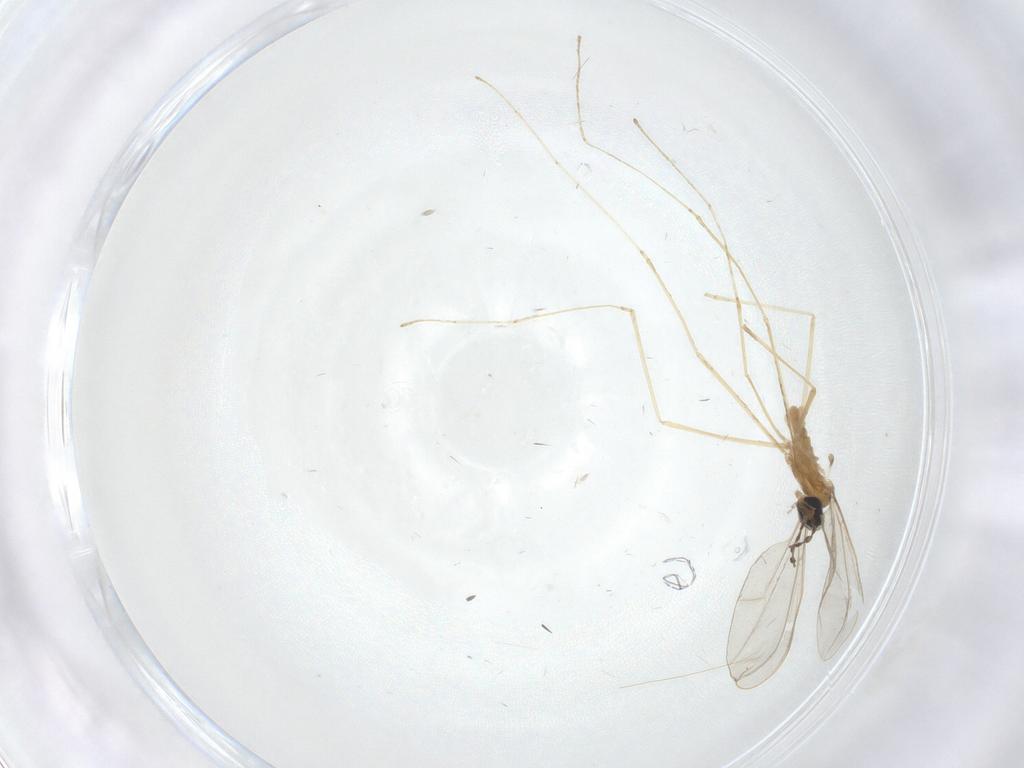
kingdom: Animalia
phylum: Arthropoda
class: Insecta
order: Diptera
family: Cecidomyiidae
